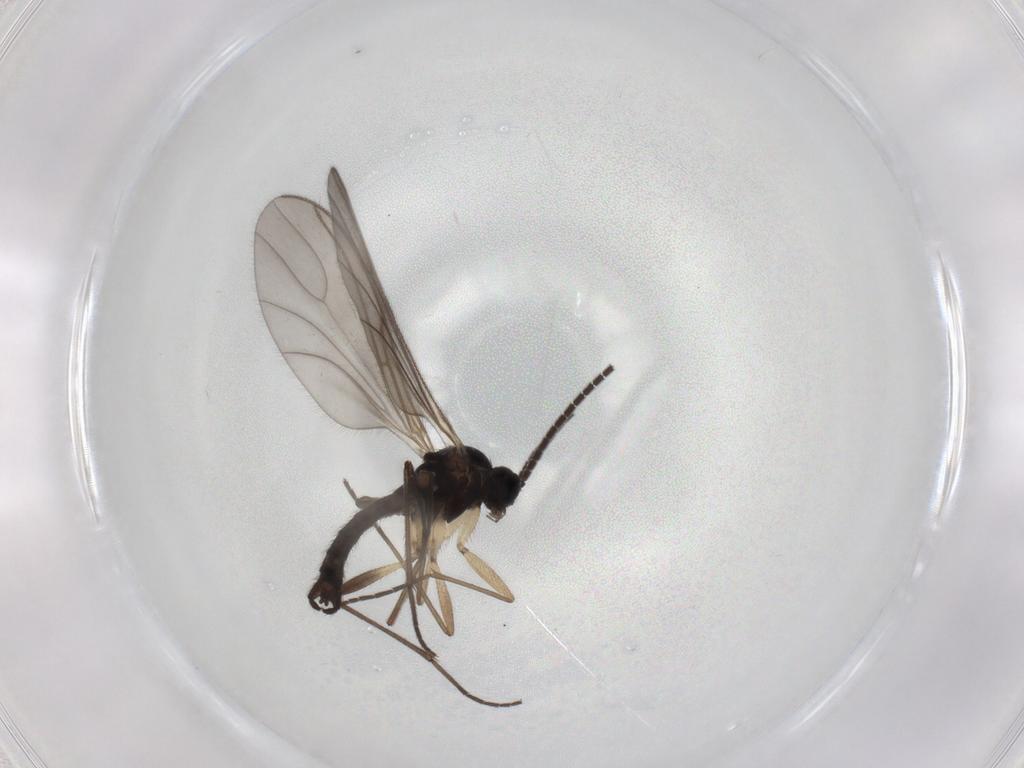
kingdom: Animalia
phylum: Arthropoda
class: Insecta
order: Diptera
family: Sciaridae
